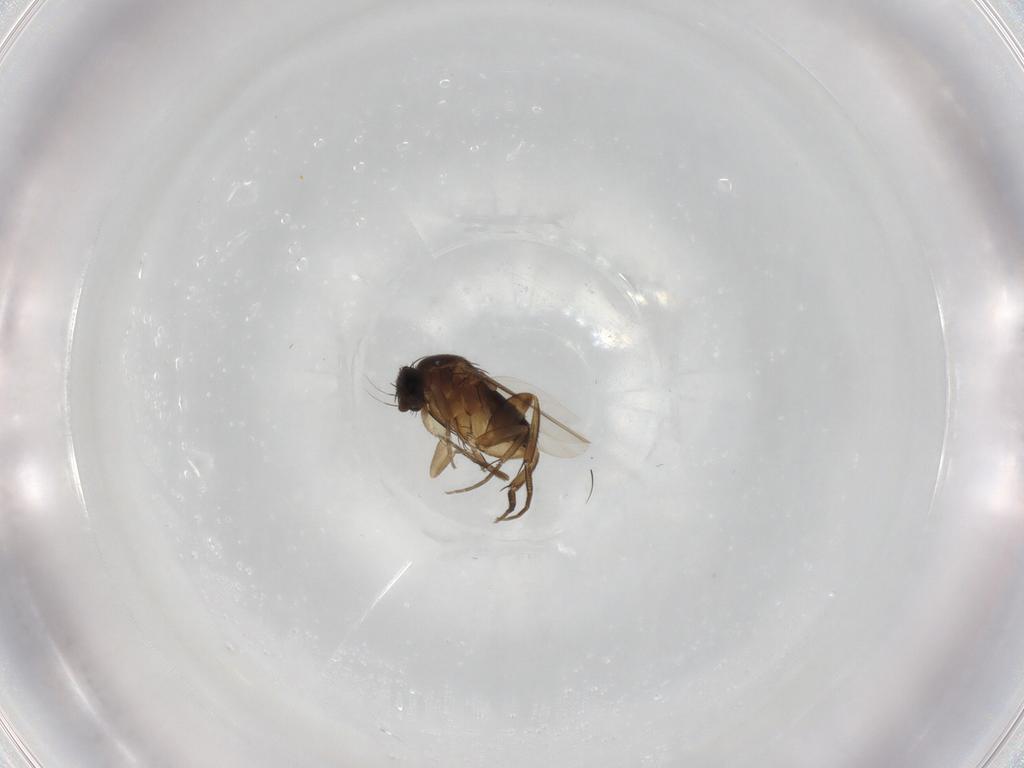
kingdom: Animalia
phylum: Arthropoda
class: Insecta
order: Diptera
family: Phoridae
